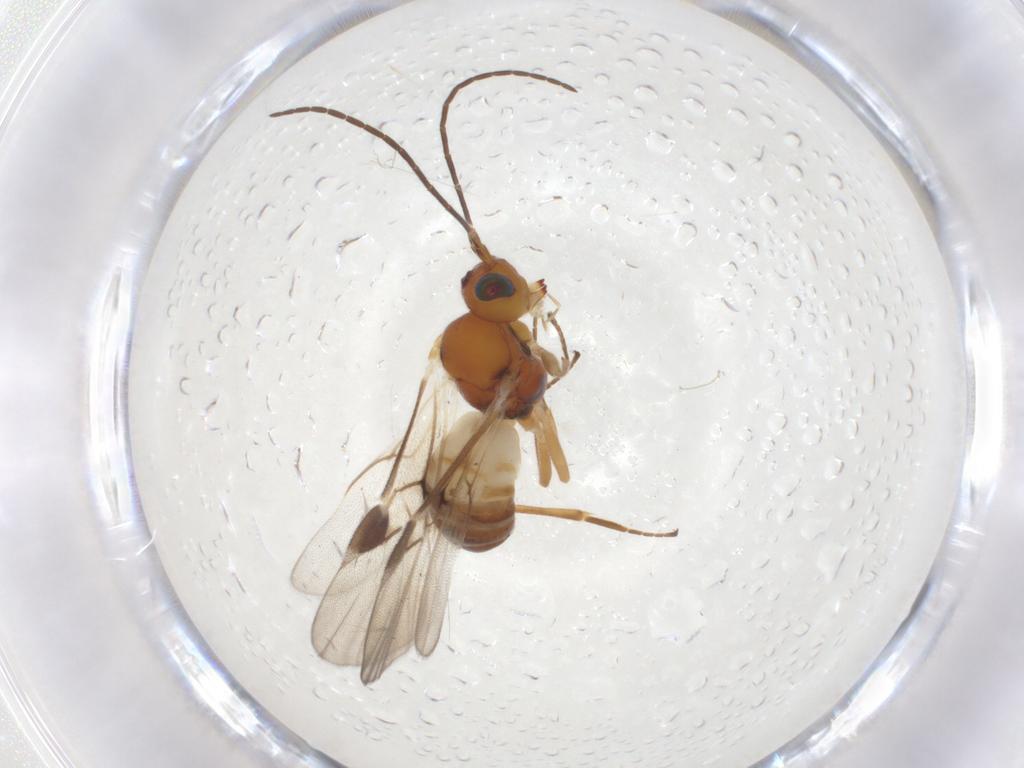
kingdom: Animalia
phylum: Arthropoda
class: Insecta
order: Hymenoptera
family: Braconidae
